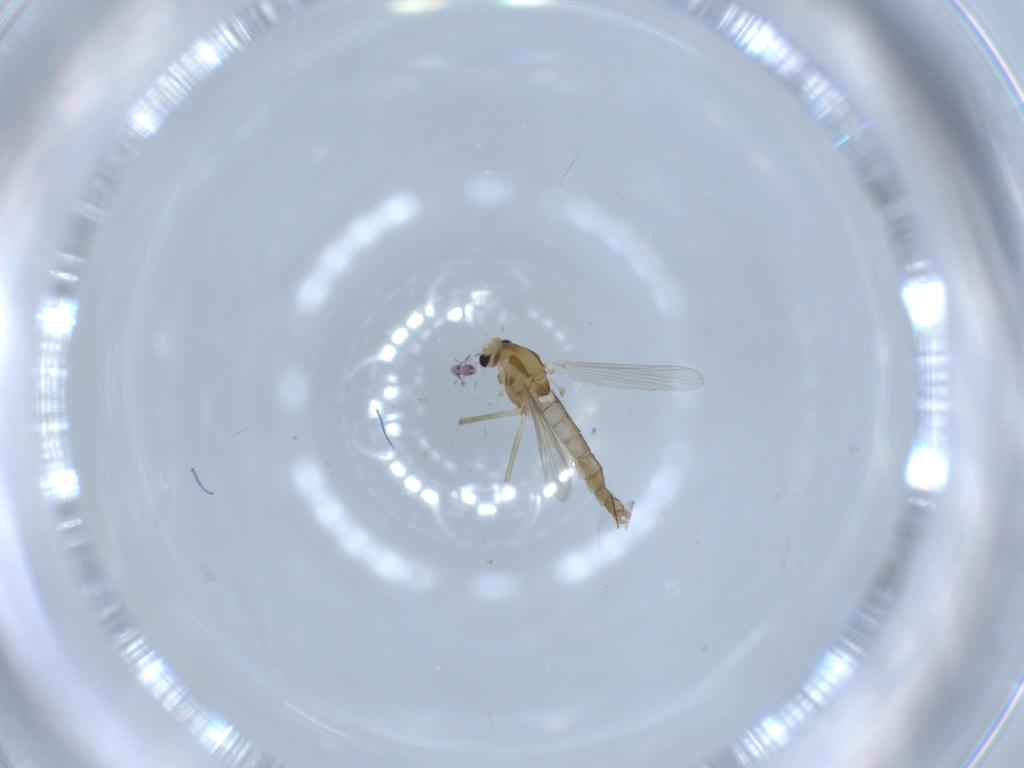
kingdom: Animalia
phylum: Arthropoda
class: Insecta
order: Diptera
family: Chironomidae
